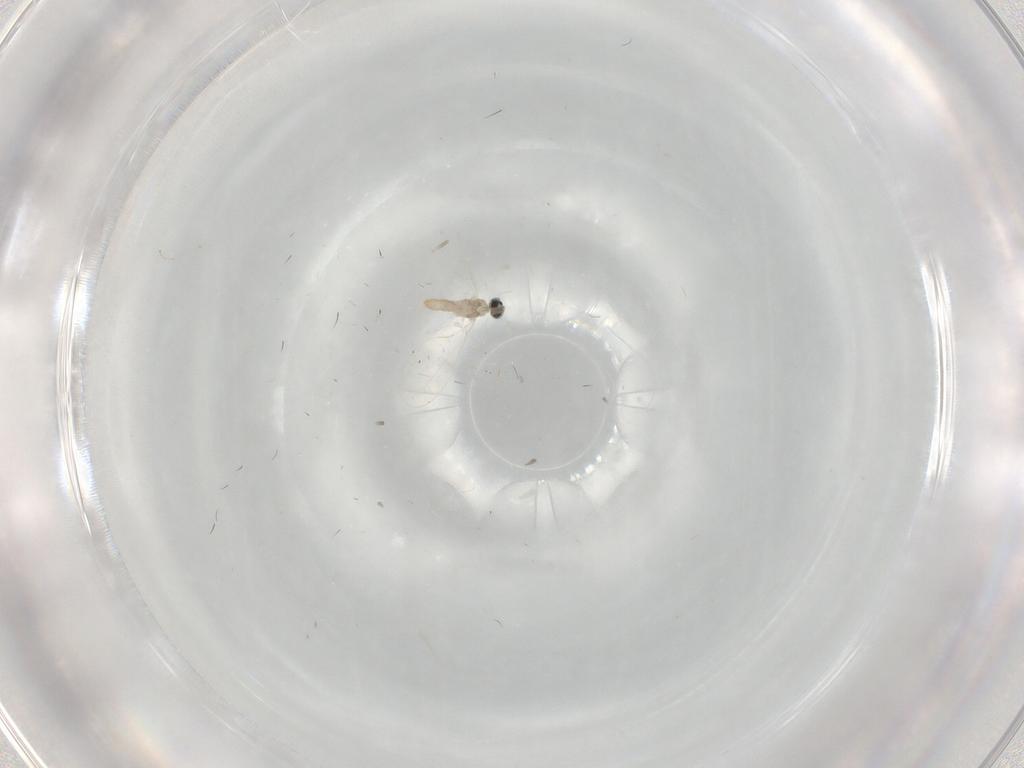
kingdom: Animalia
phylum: Arthropoda
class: Insecta
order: Diptera
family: Cecidomyiidae
